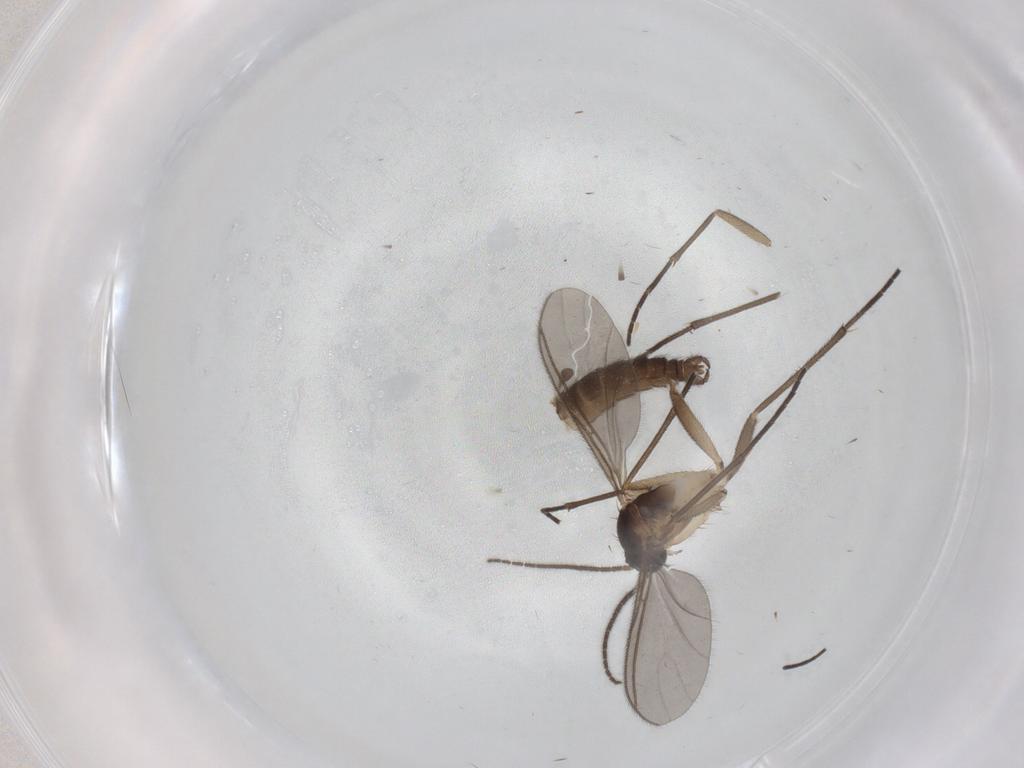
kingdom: Animalia
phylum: Arthropoda
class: Insecta
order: Diptera
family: Sciaridae
